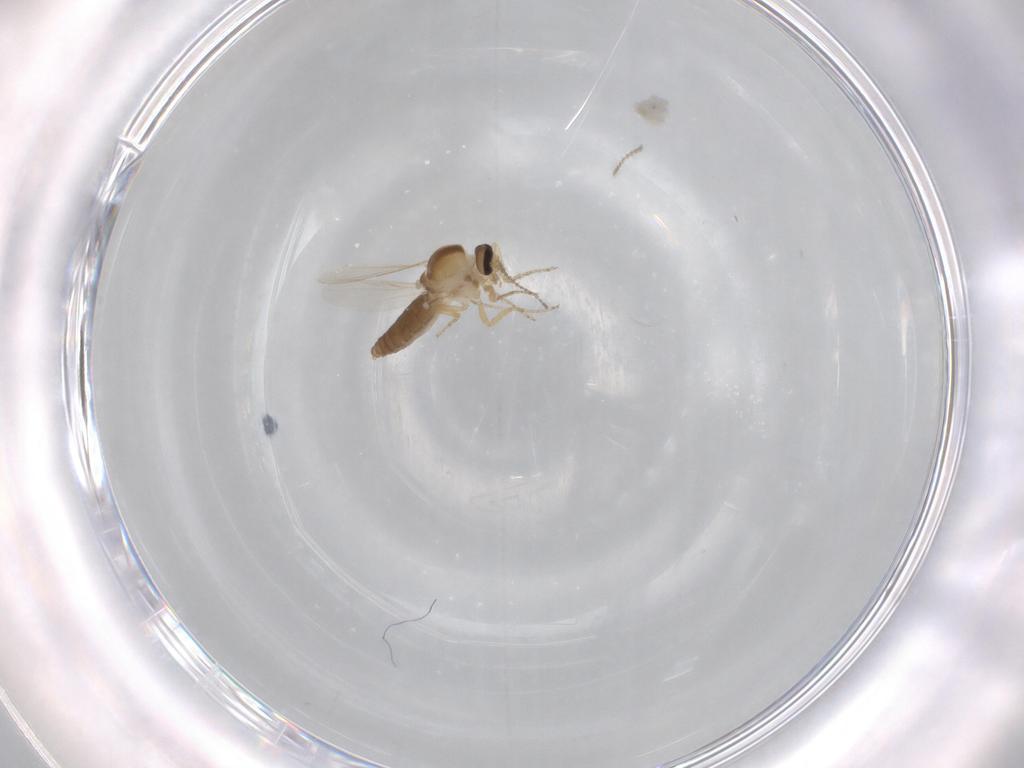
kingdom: Animalia
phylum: Arthropoda
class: Insecta
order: Diptera
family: Ceratopogonidae
